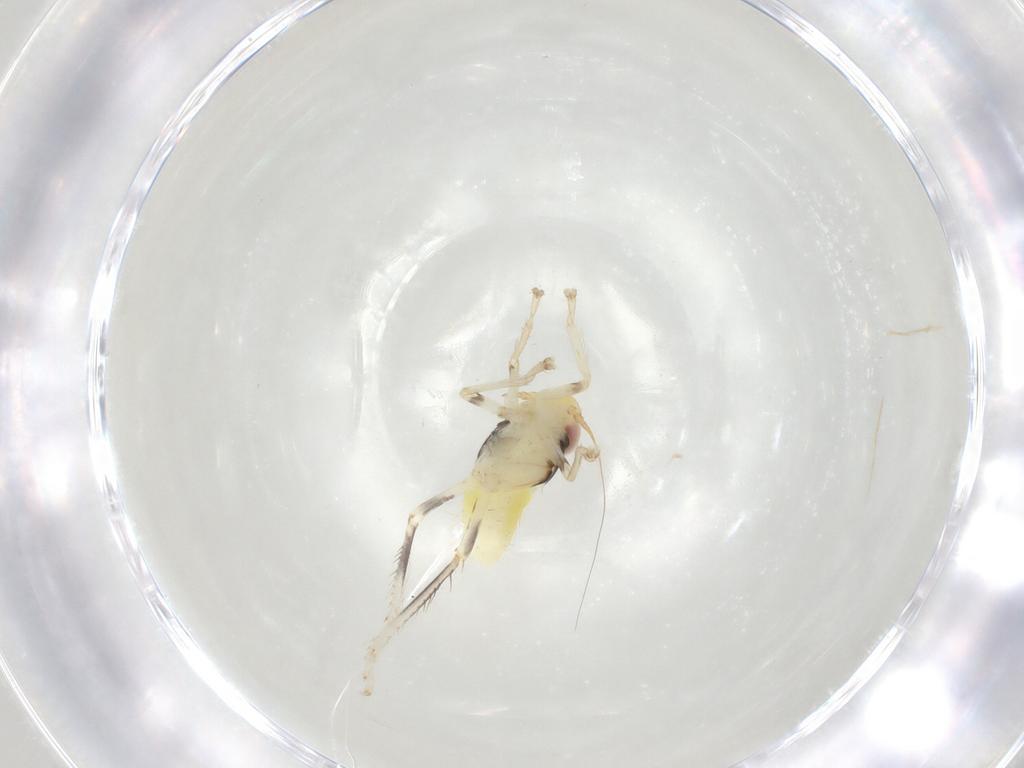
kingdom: Animalia
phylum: Arthropoda
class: Insecta
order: Hemiptera
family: Cicadellidae
